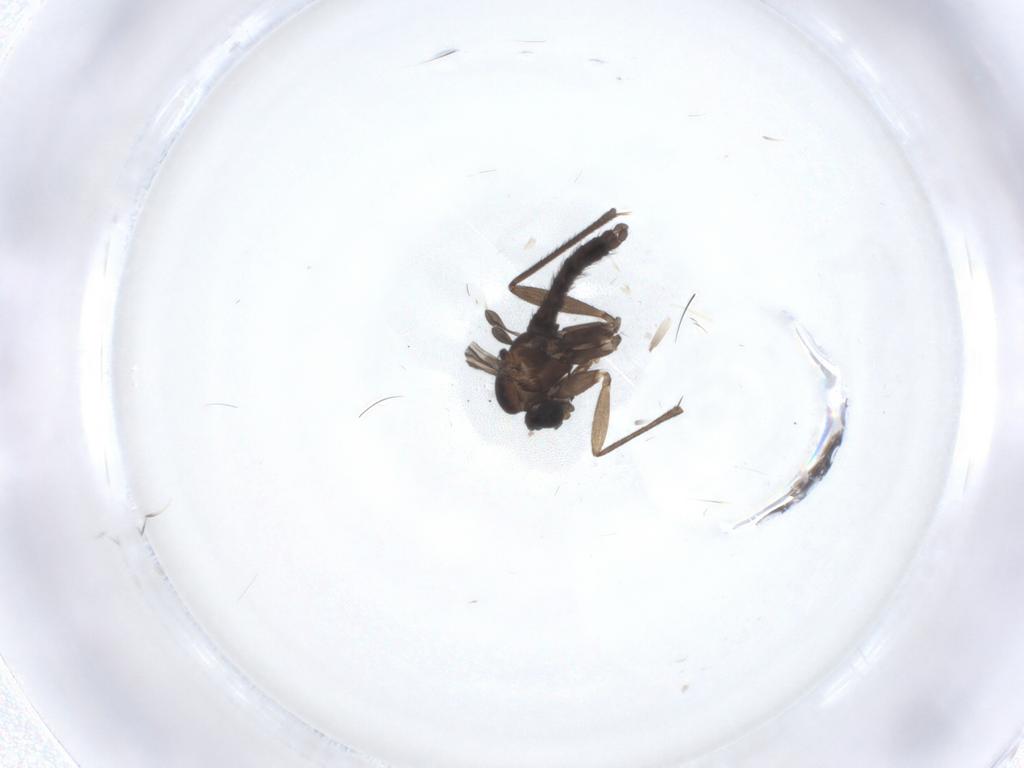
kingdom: Animalia
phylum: Arthropoda
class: Insecta
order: Diptera
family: Sciaridae
